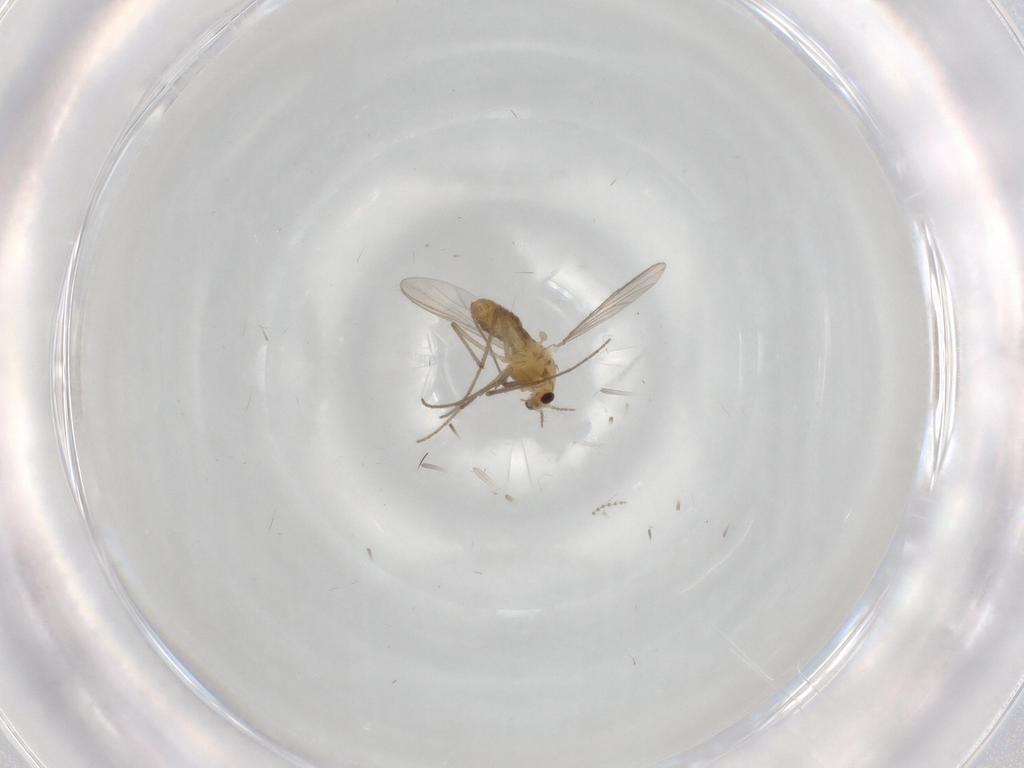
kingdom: Animalia
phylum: Arthropoda
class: Insecta
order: Diptera
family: Chironomidae
